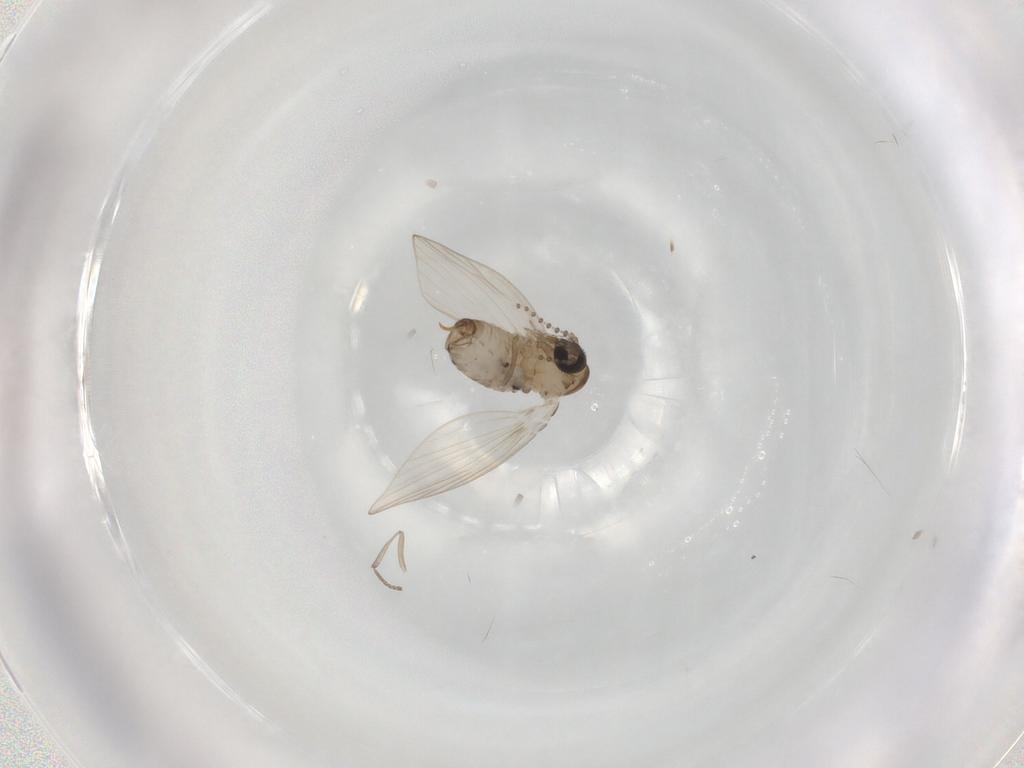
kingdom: Animalia
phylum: Arthropoda
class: Insecta
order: Diptera
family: Psychodidae
